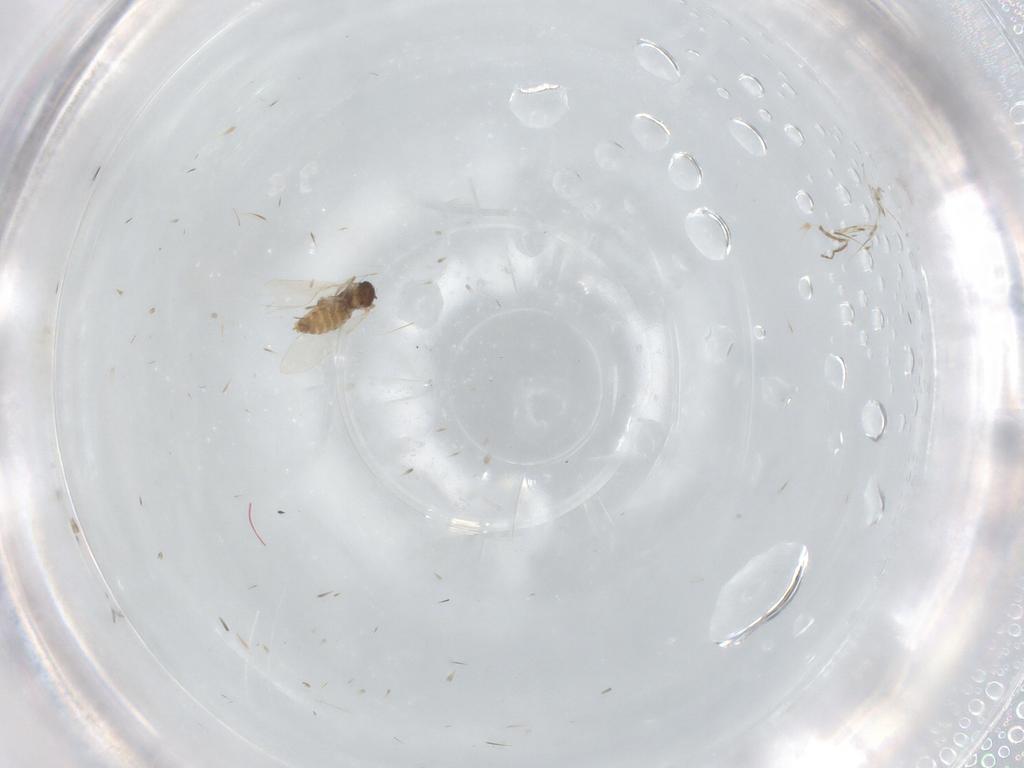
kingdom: Animalia
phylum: Arthropoda
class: Insecta
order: Diptera
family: Cecidomyiidae
